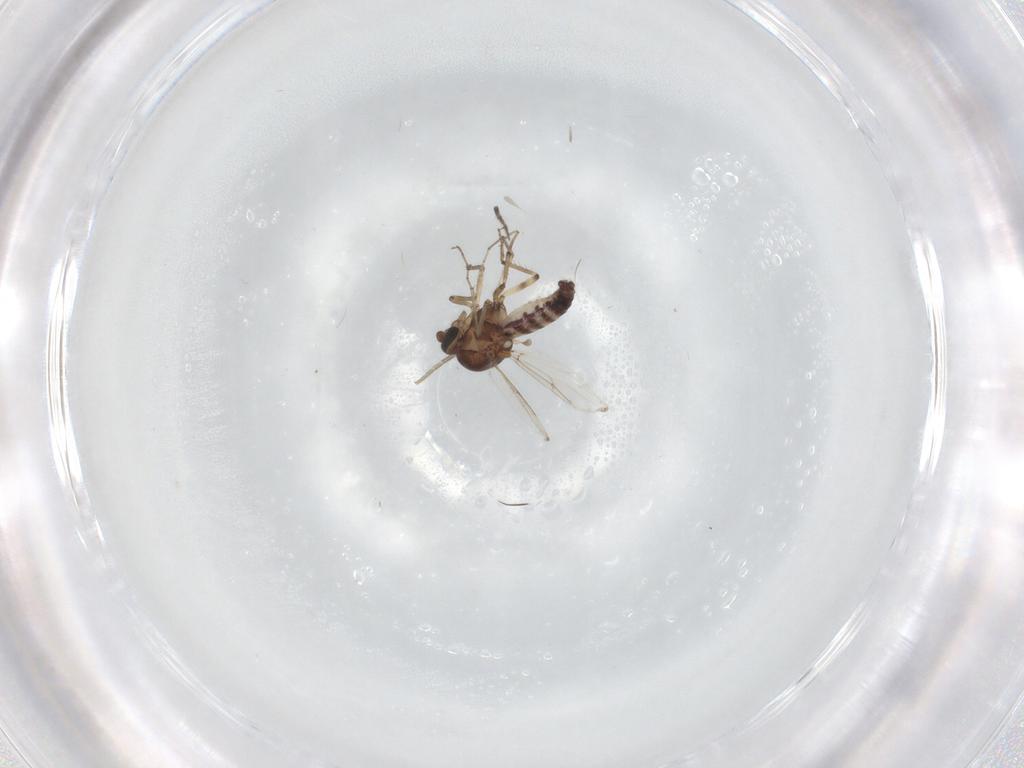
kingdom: Animalia
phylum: Arthropoda
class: Insecta
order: Diptera
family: Ceratopogonidae
